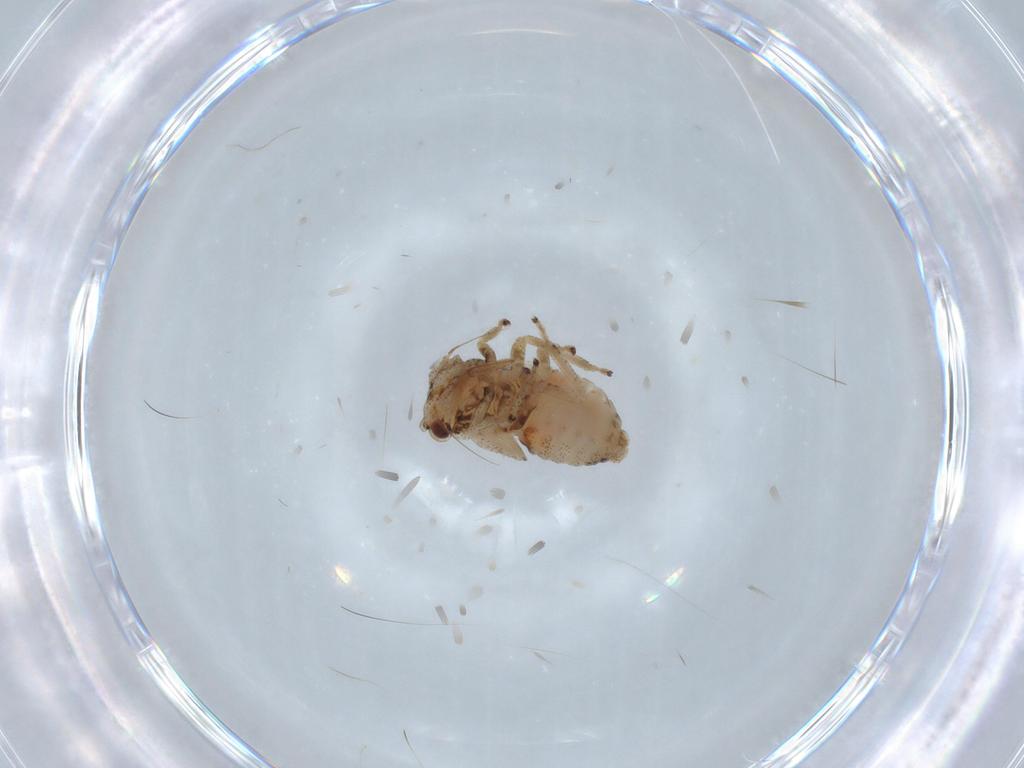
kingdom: Animalia
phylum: Arthropoda
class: Insecta
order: Hemiptera
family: Cicadellidae
